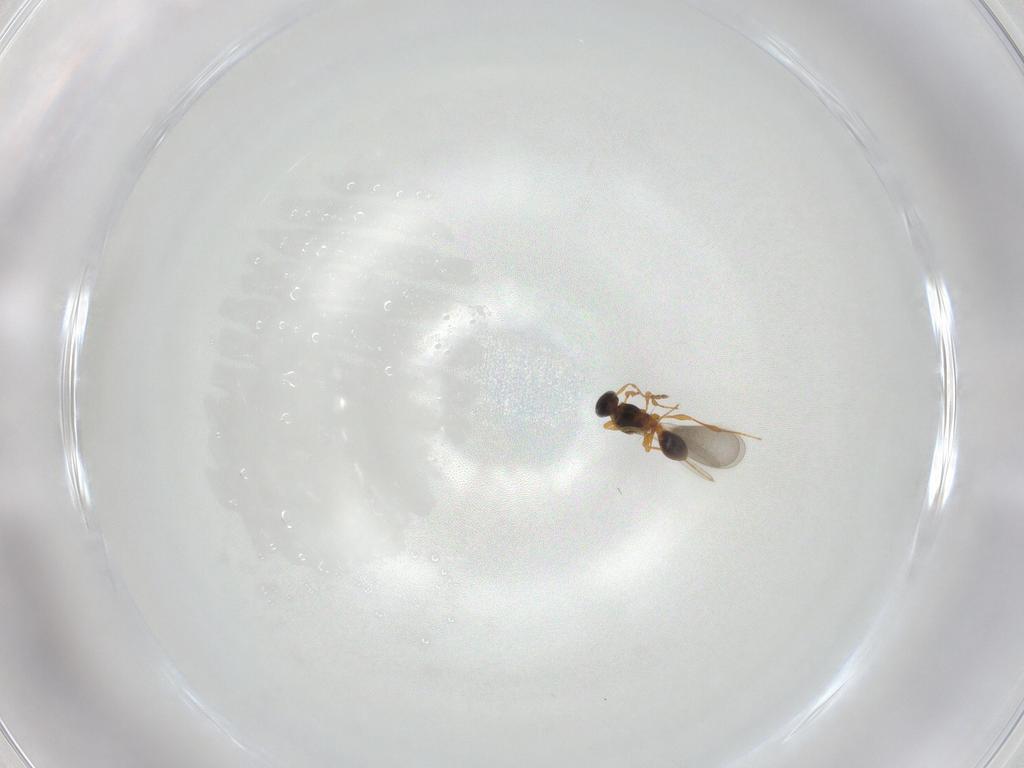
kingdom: Animalia
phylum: Arthropoda
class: Insecta
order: Hymenoptera
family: Platygastridae
